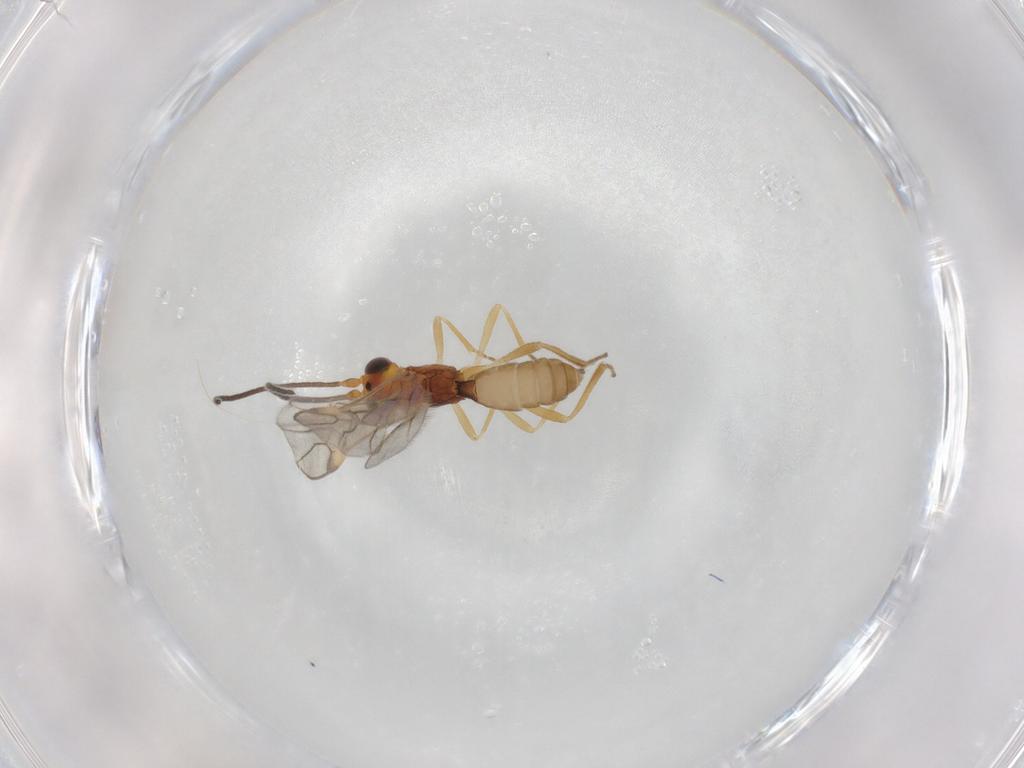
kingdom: Animalia
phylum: Arthropoda
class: Insecta
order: Hymenoptera
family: Braconidae
